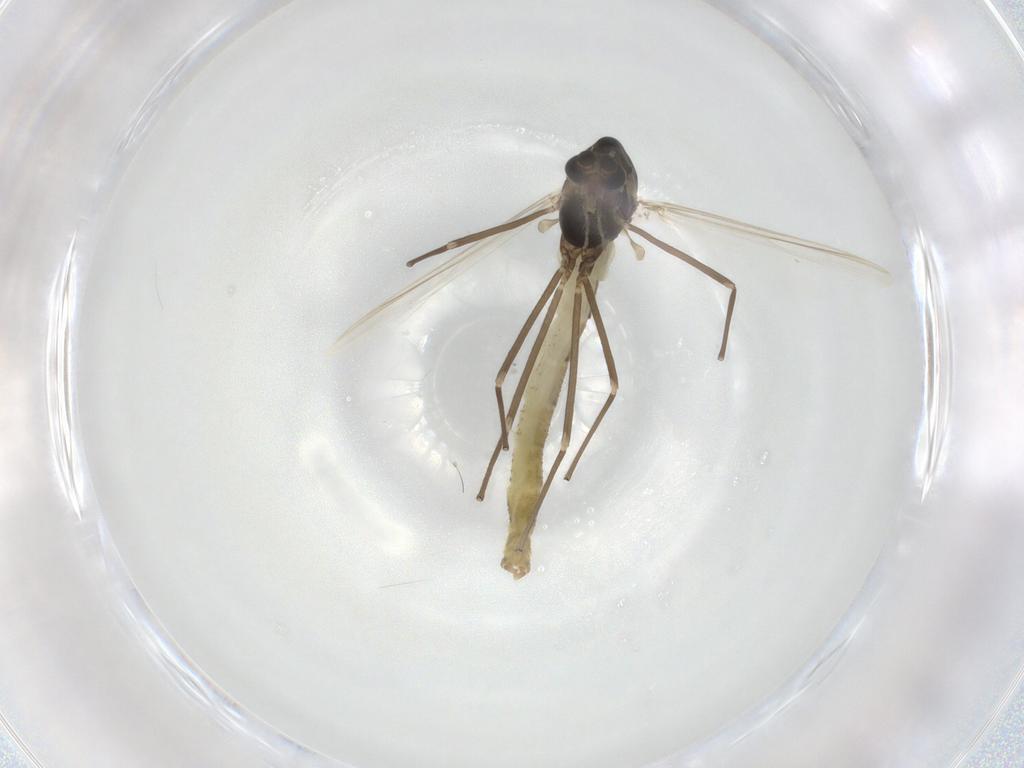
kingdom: Animalia
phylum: Arthropoda
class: Insecta
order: Diptera
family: Chironomidae
